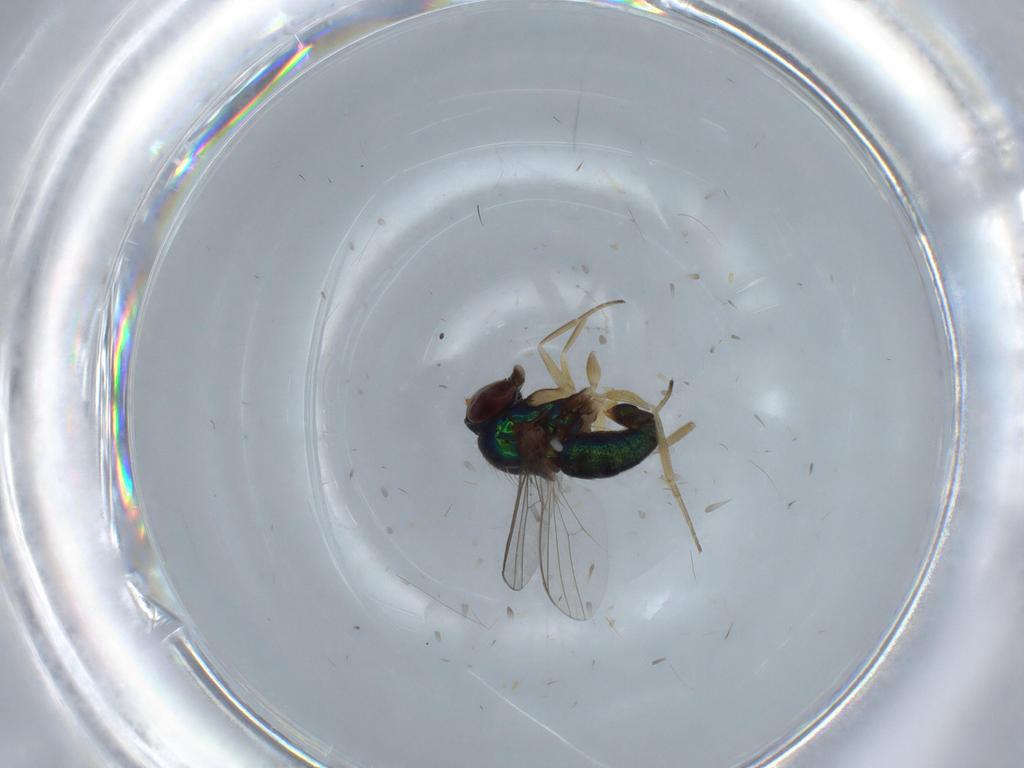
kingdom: Animalia
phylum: Arthropoda
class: Insecta
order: Diptera
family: Dolichopodidae
